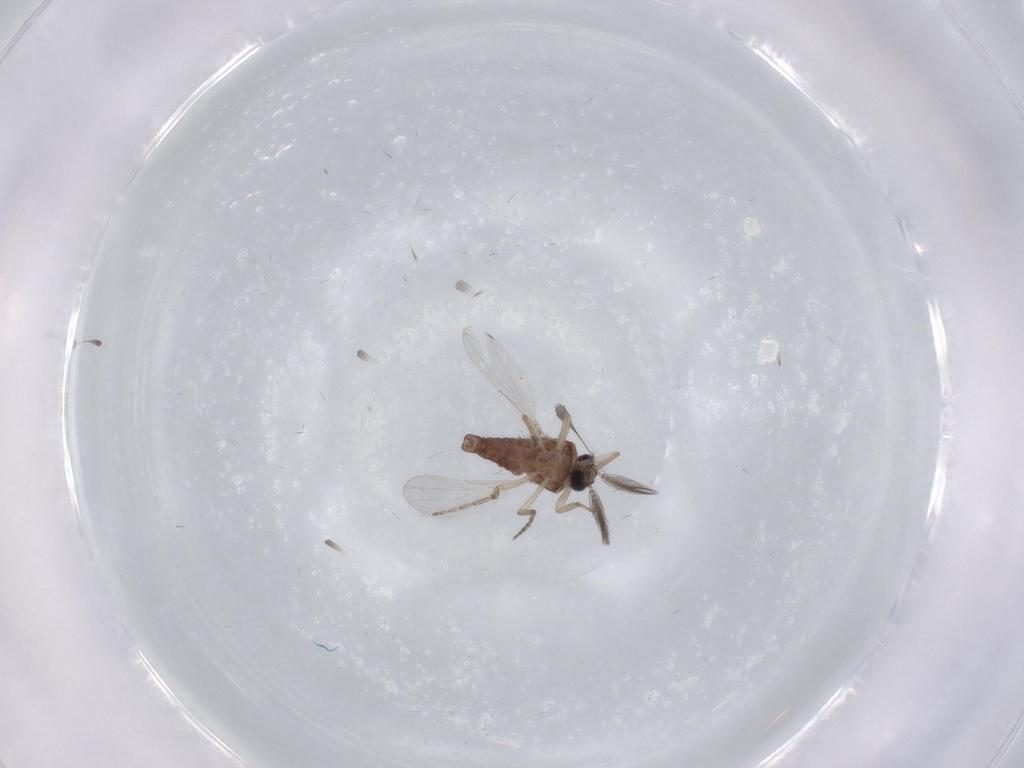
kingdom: Animalia
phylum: Arthropoda
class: Insecta
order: Diptera
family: Ceratopogonidae
